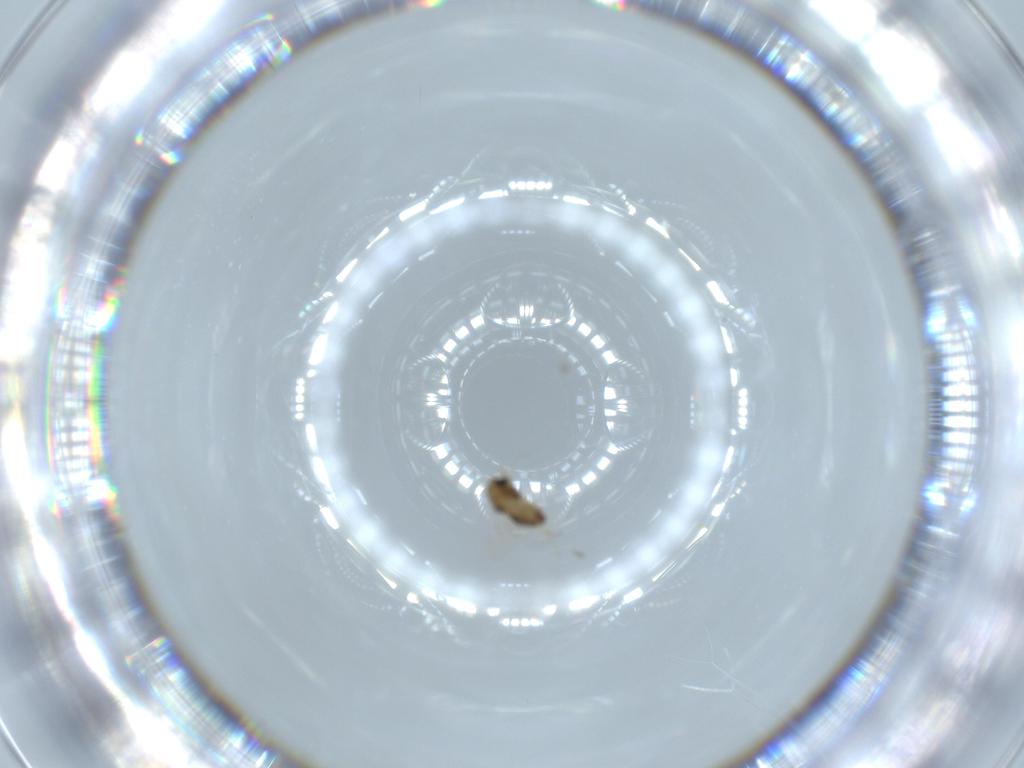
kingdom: Animalia
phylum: Arthropoda
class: Insecta
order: Diptera
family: Chironomidae
